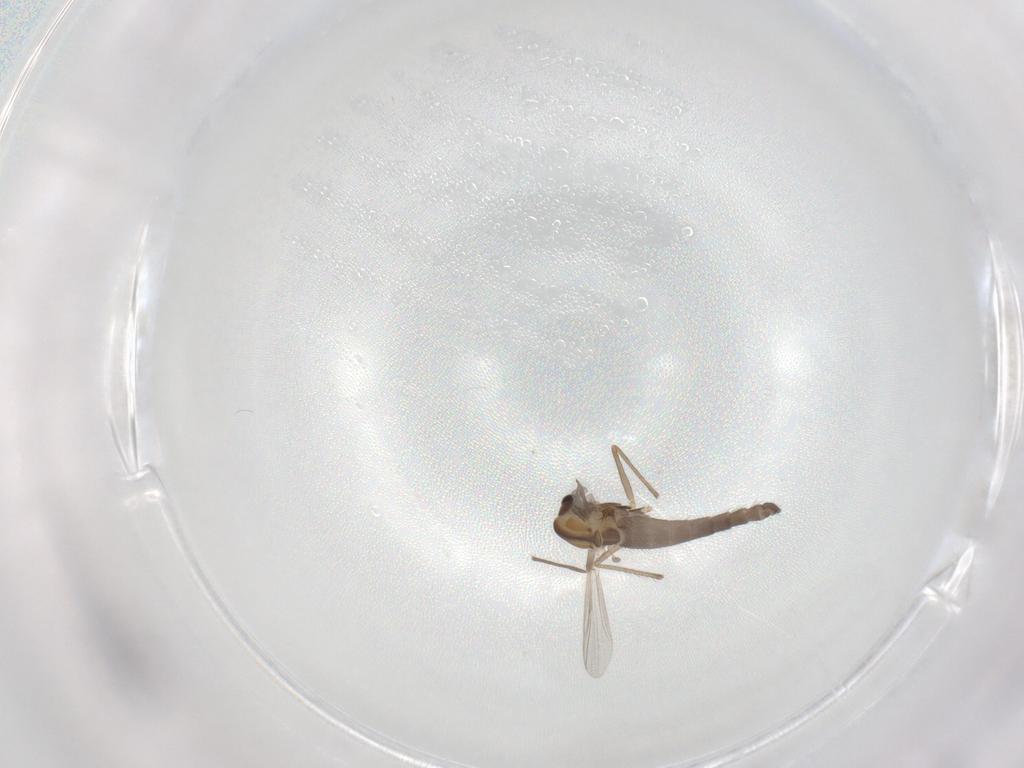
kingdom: Animalia
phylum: Arthropoda
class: Insecta
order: Diptera
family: Chironomidae
